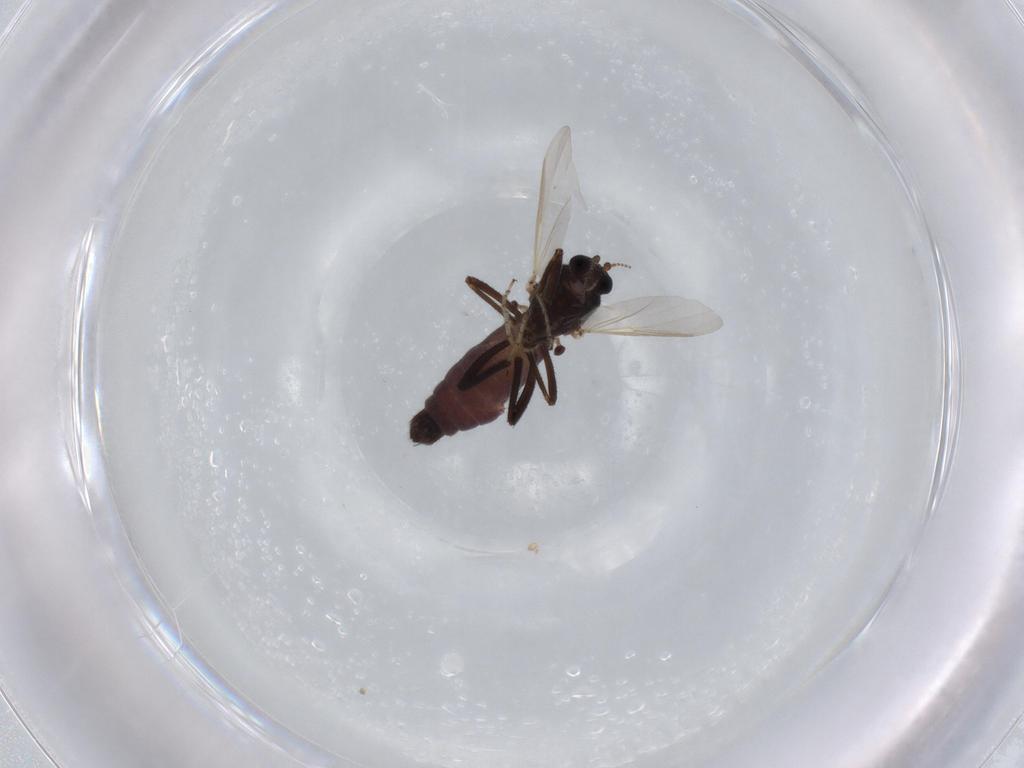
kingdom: Animalia
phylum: Arthropoda
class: Insecta
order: Diptera
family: Ceratopogonidae
